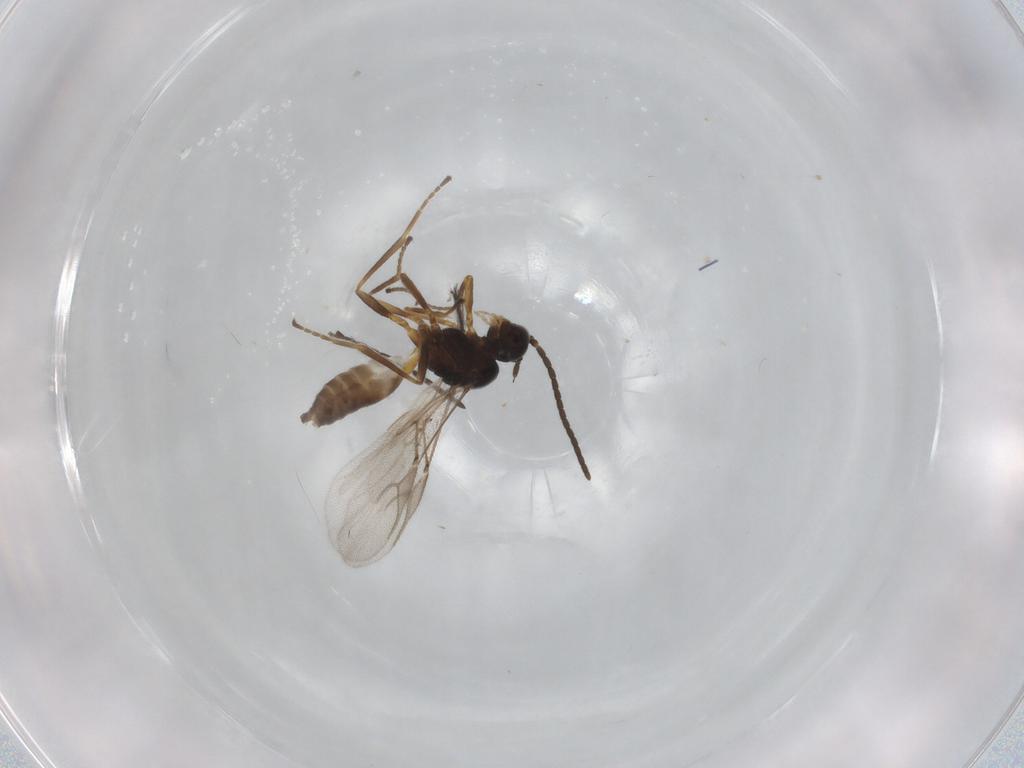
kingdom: Animalia
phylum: Arthropoda
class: Insecta
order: Hymenoptera
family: Braconidae
